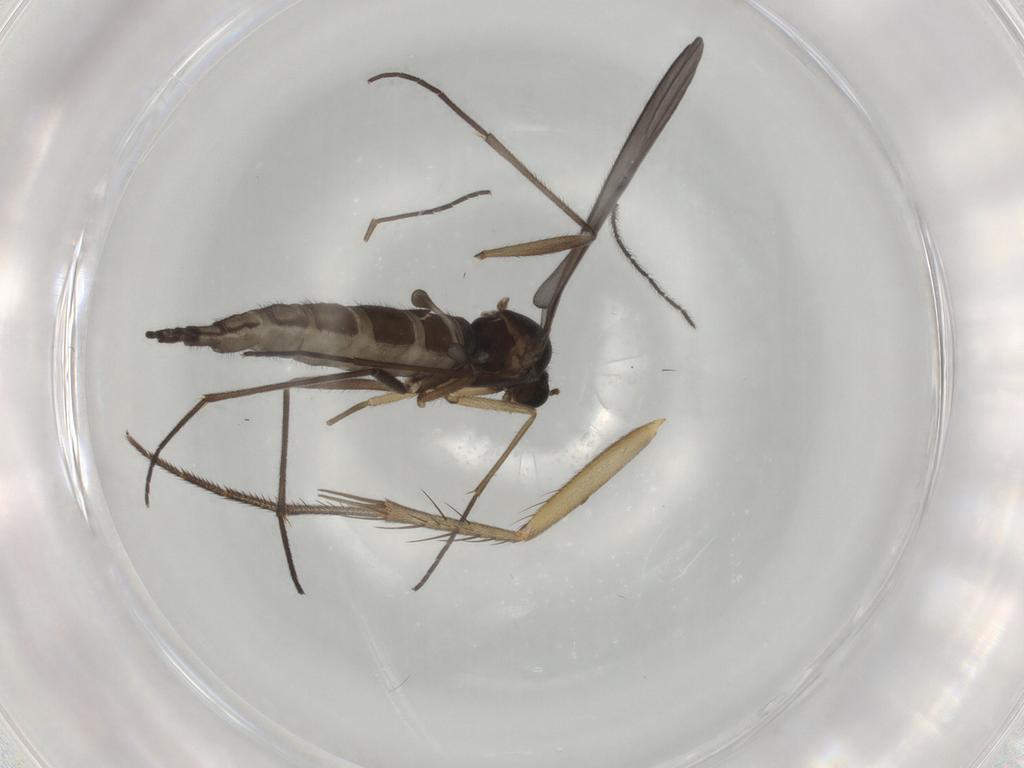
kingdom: Animalia
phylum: Arthropoda
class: Insecta
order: Diptera
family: Sciaridae
